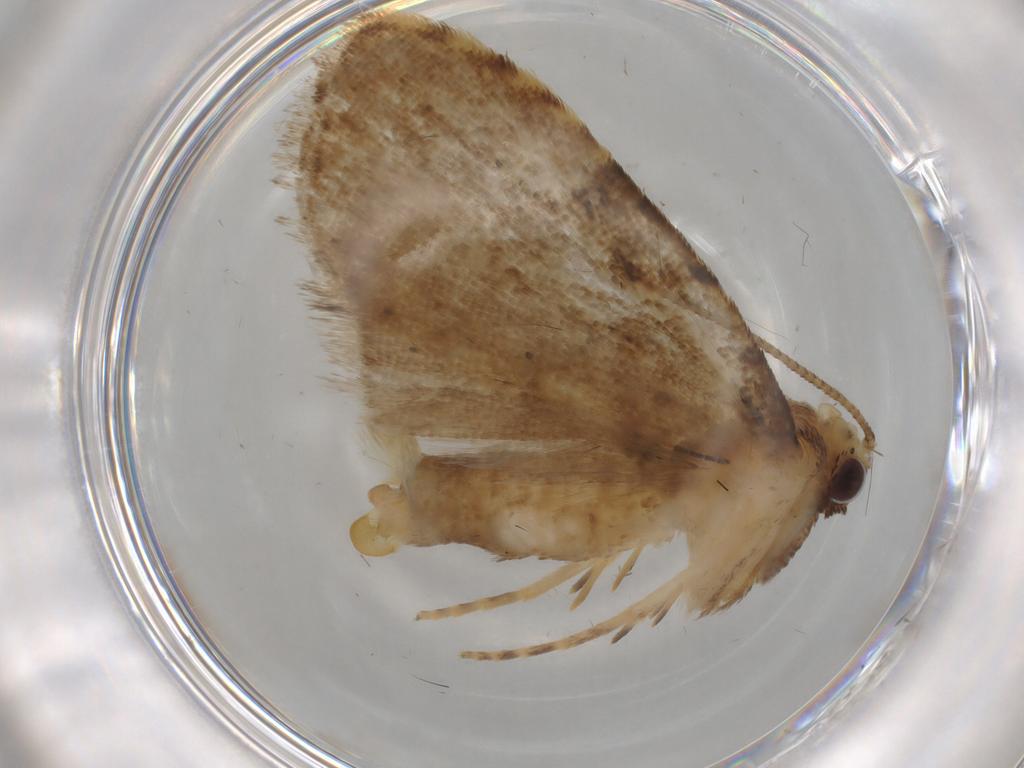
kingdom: Animalia
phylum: Arthropoda
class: Insecta
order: Lepidoptera
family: Erebidae
